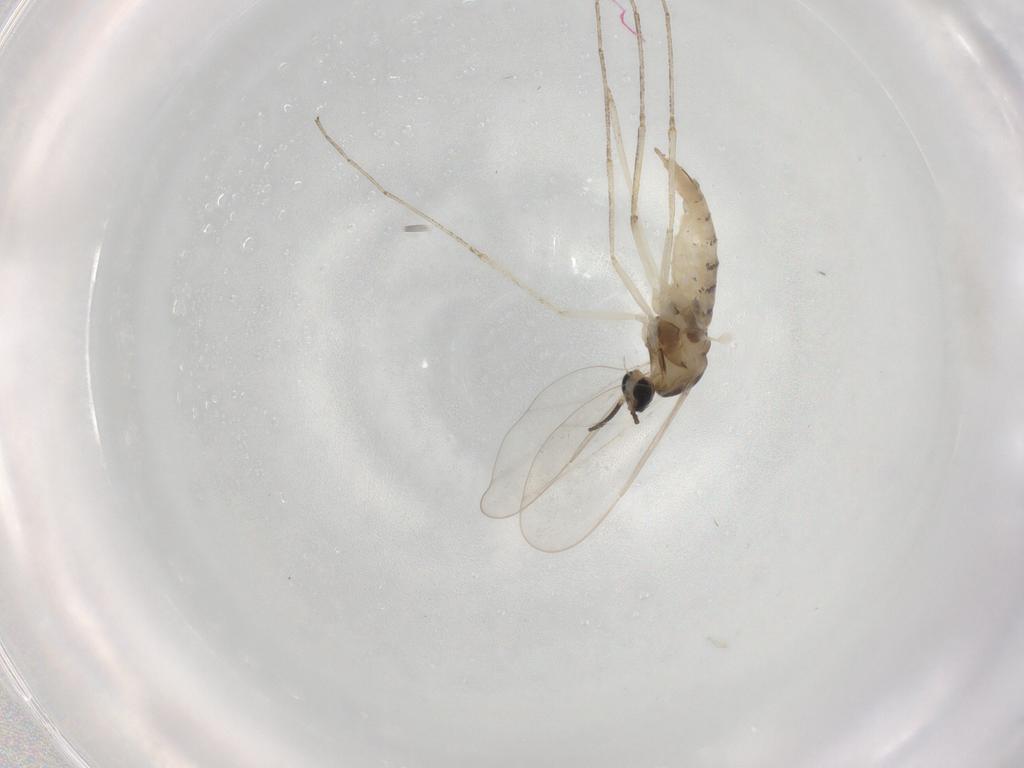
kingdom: Animalia
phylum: Arthropoda
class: Insecta
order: Diptera
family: Cecidomyiidae
